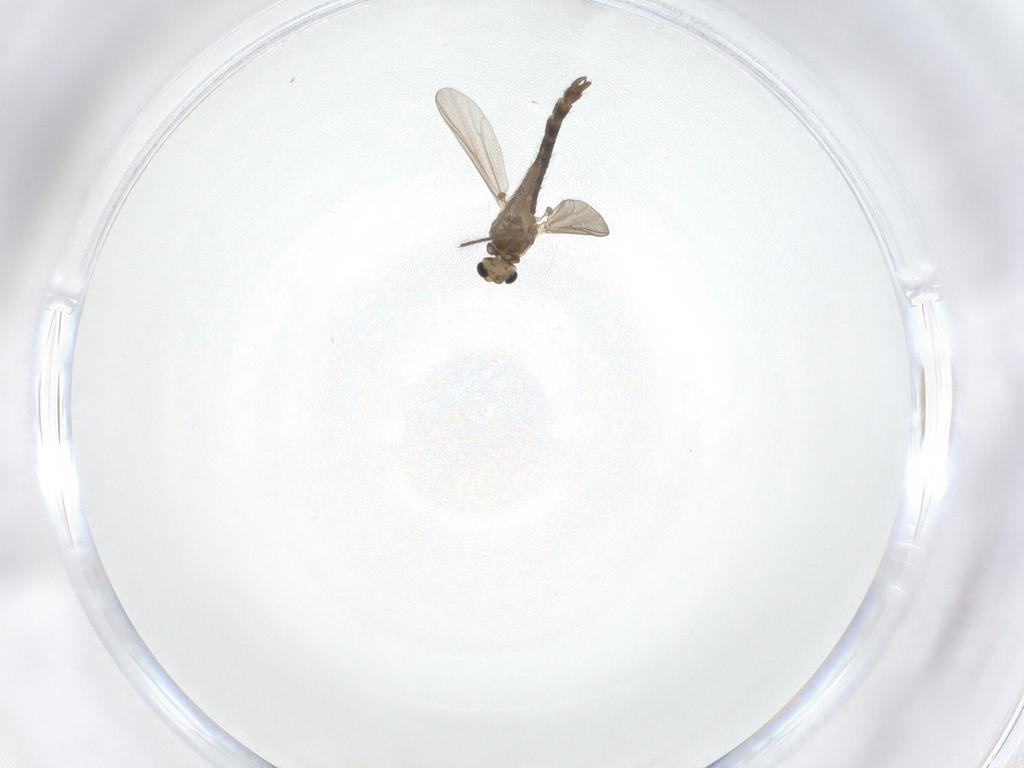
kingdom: Animalia
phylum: Arthropoda
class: Insecta
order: Diptera
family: Chironomidae
